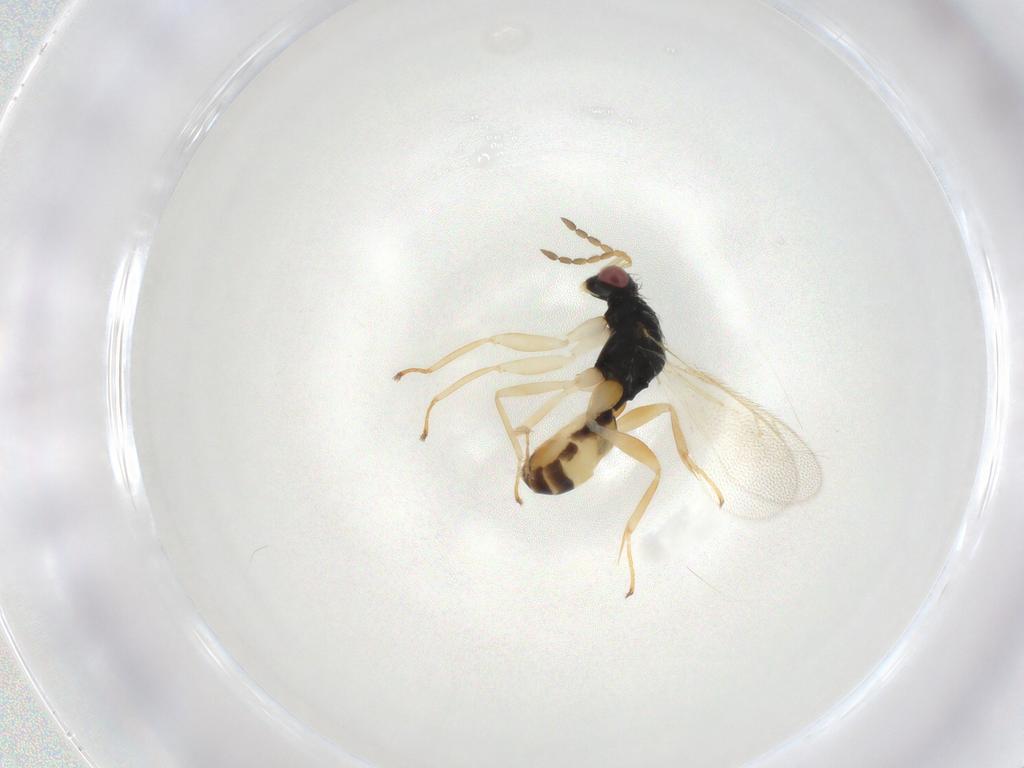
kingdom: Animalia
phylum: Arthropoda
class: Insecta
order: Hymenoptera
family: Eulophidae
